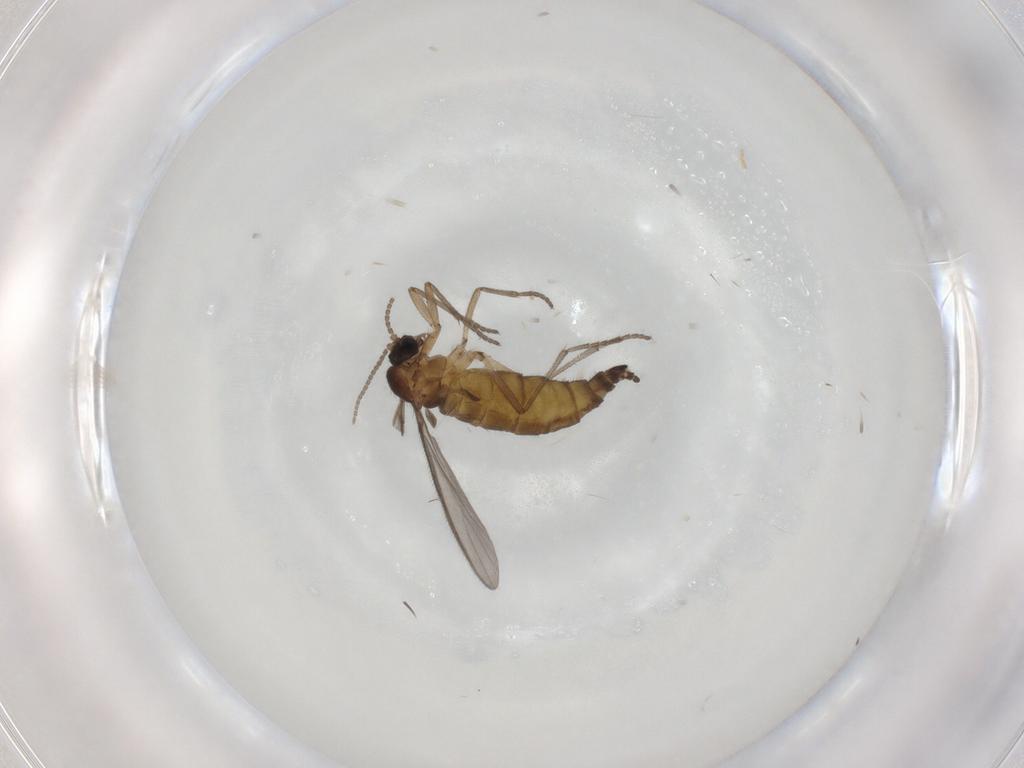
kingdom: Animalia
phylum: Arthropoda
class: Insecta
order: Diptera
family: Sciaridae
